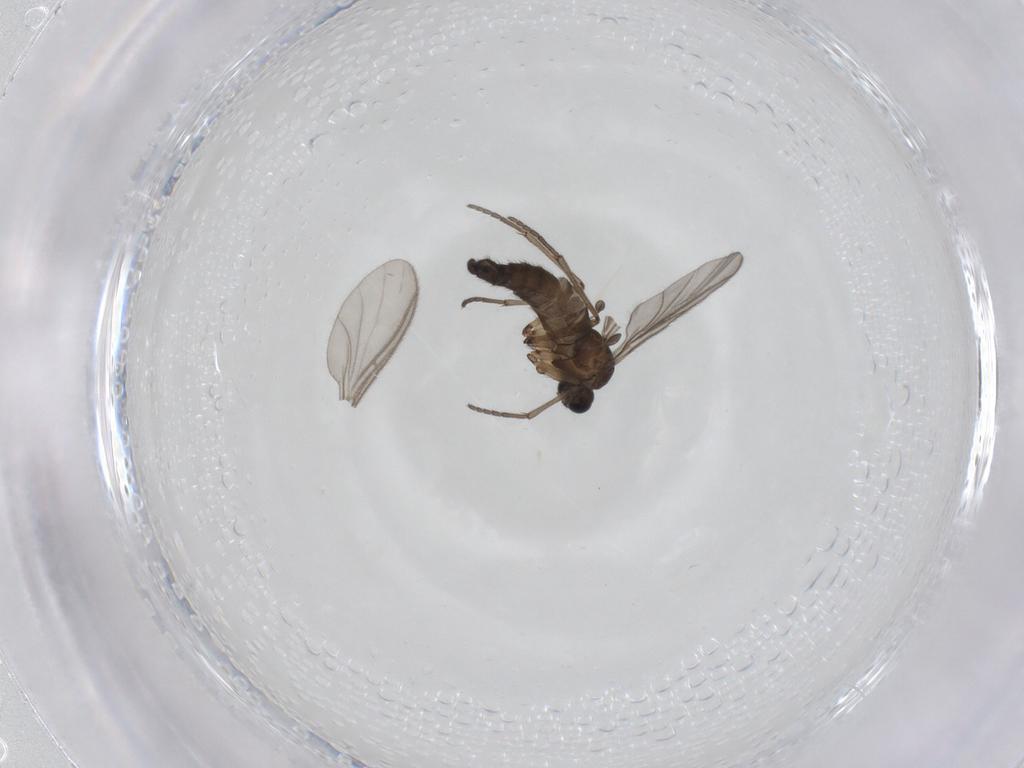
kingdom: Animalia
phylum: Arthropoda
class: Insecta
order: Diptera
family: Sciaridae
